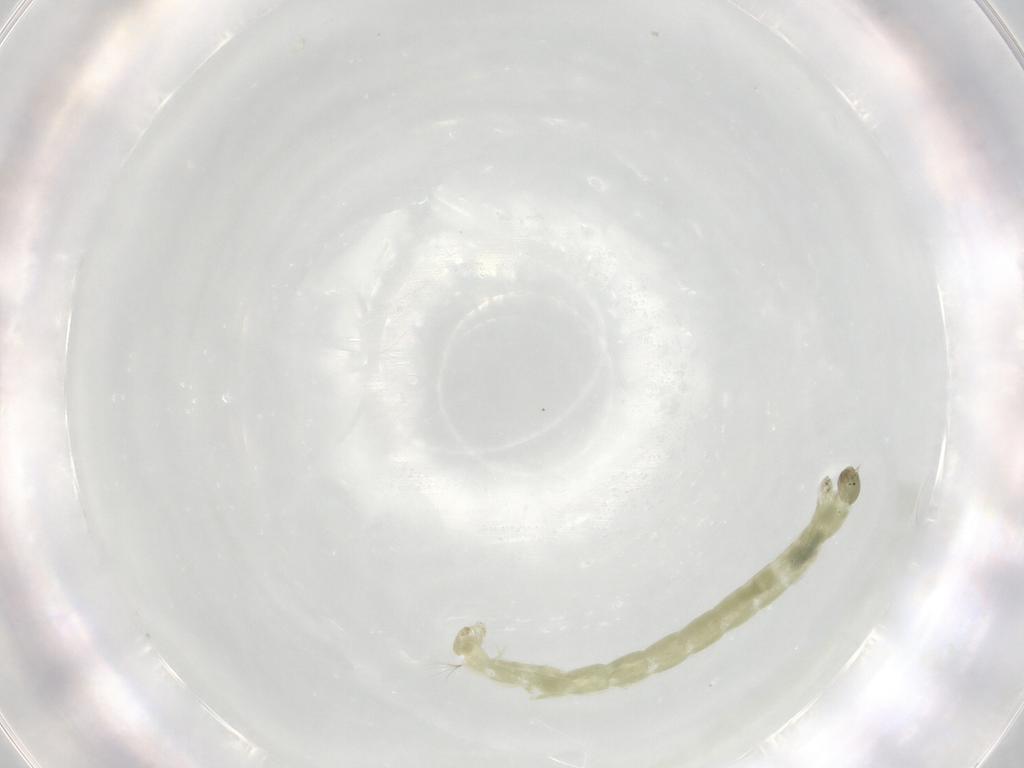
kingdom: Animalia
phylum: Arthropoda
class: Insecta
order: Diptera
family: Chironomidae
